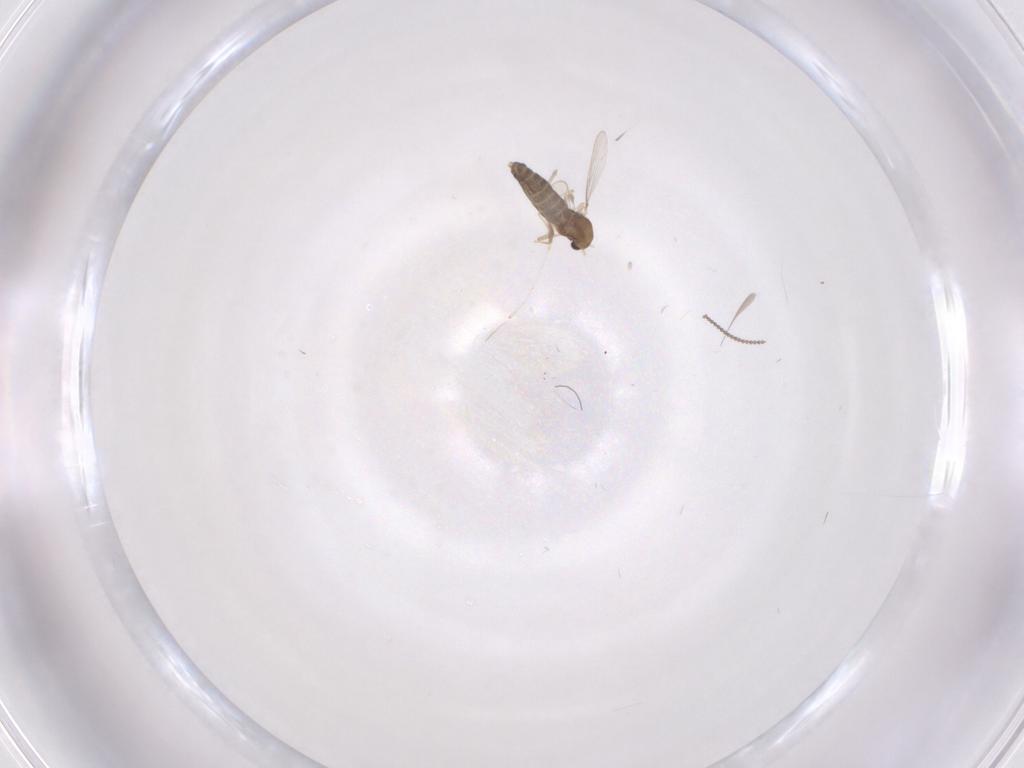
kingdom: Animalia
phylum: Arthropoda
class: Insecta
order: Diptera
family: Chironomidae
